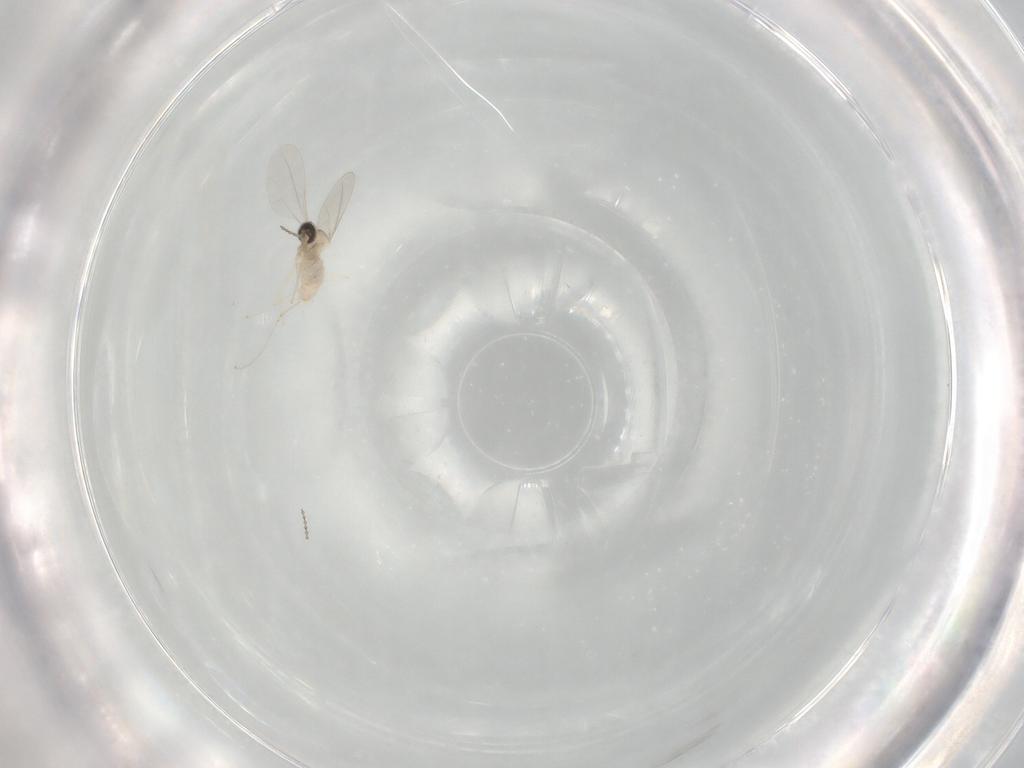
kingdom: Animalia
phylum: Arthropoda
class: Insecta
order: Diptera
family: Cecidomyiidae
